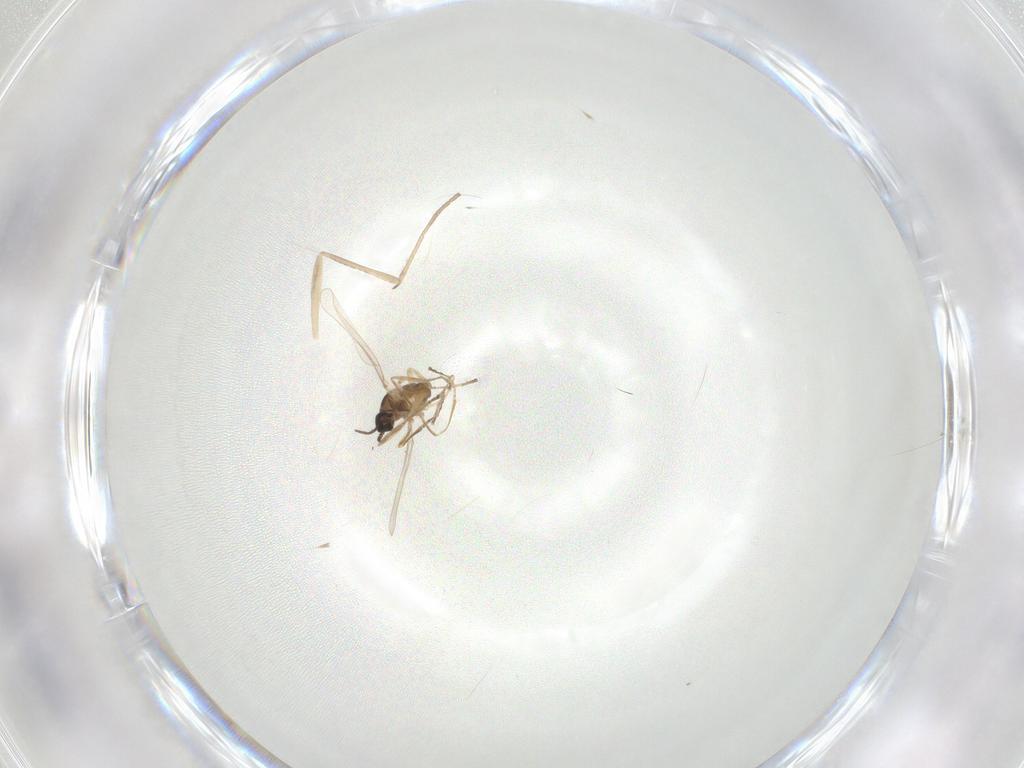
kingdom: Animalia
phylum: Arthropoda
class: Insecta
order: Diptera
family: Cecidomyiidae
